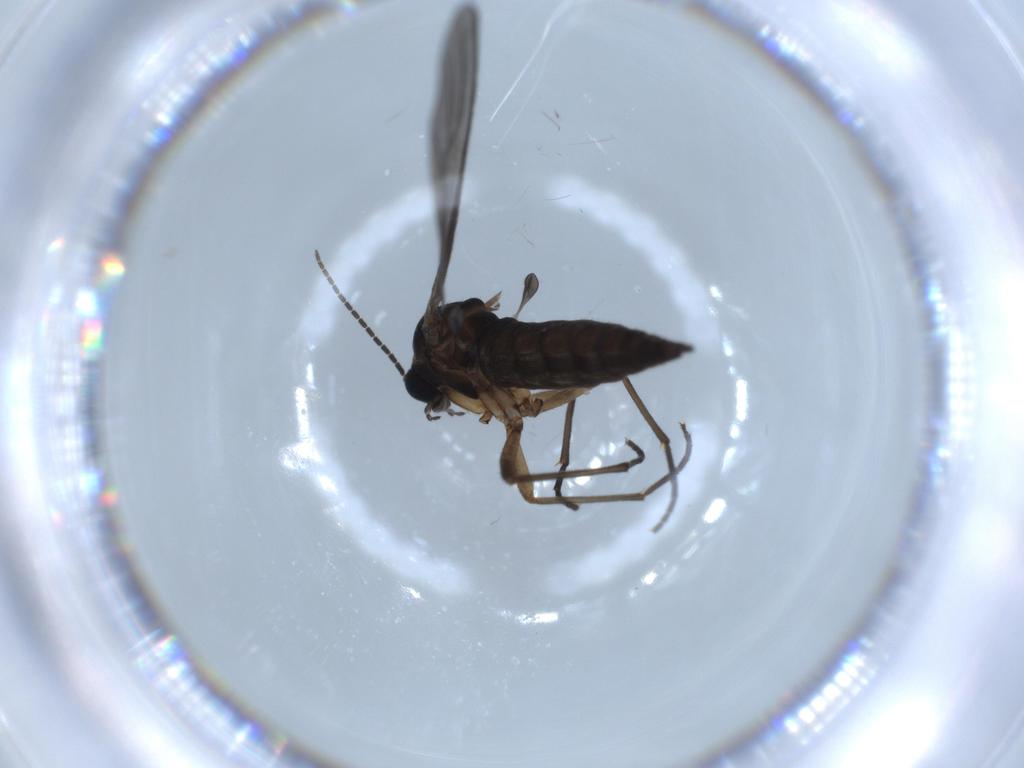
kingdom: Animalia
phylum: Arthropoda
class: Insecta
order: Diptera
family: Sciaridae
